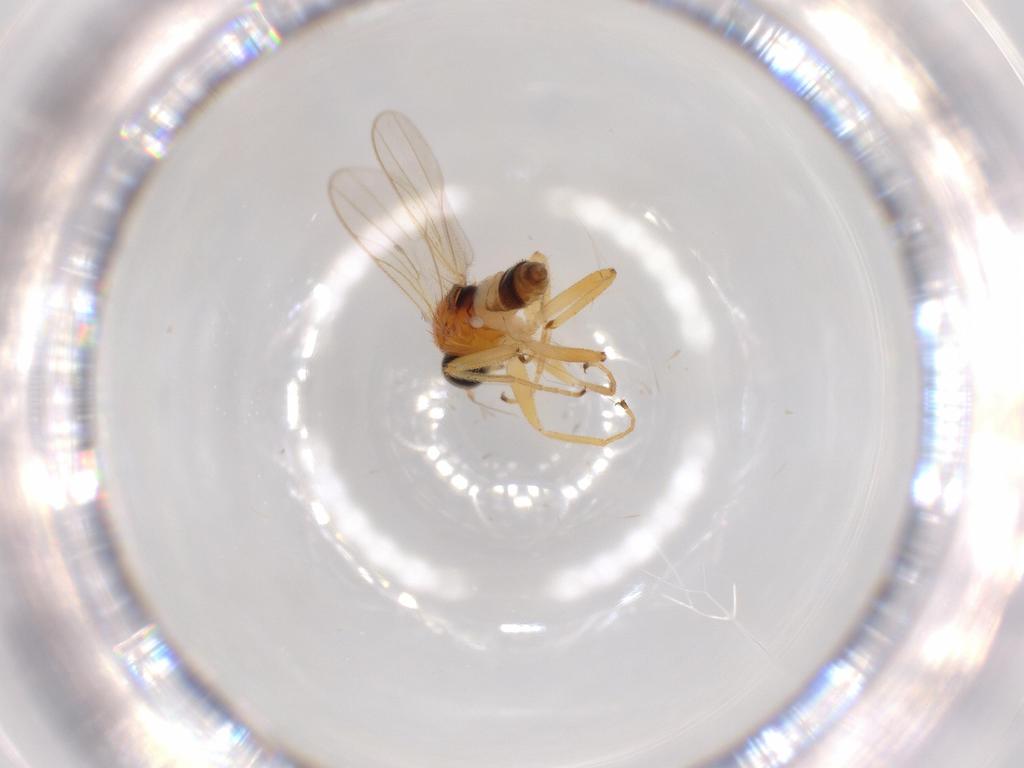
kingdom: Animalia
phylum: Arthropoda
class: Insecta
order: Diptera
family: Hybotidae
